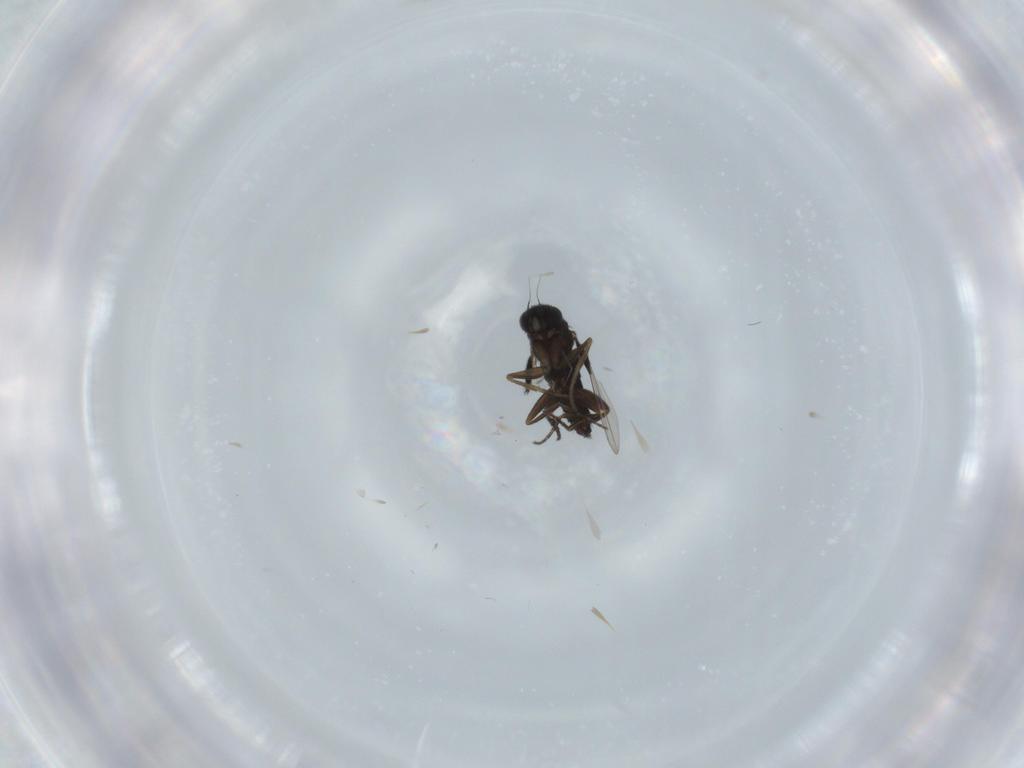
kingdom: Animalia
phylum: Arthropoda
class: Insecta
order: Diptera
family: Phoridae
